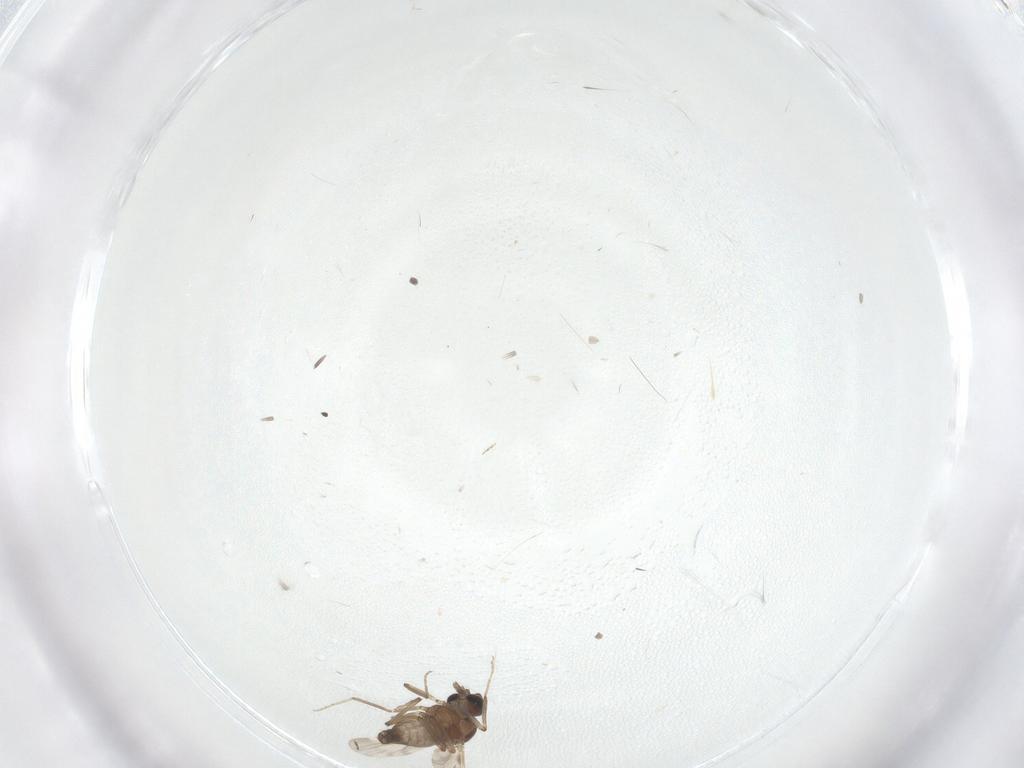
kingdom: Animalia
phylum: Arthropoda
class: Insecta
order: Diptera
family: Ceratopogonidae
